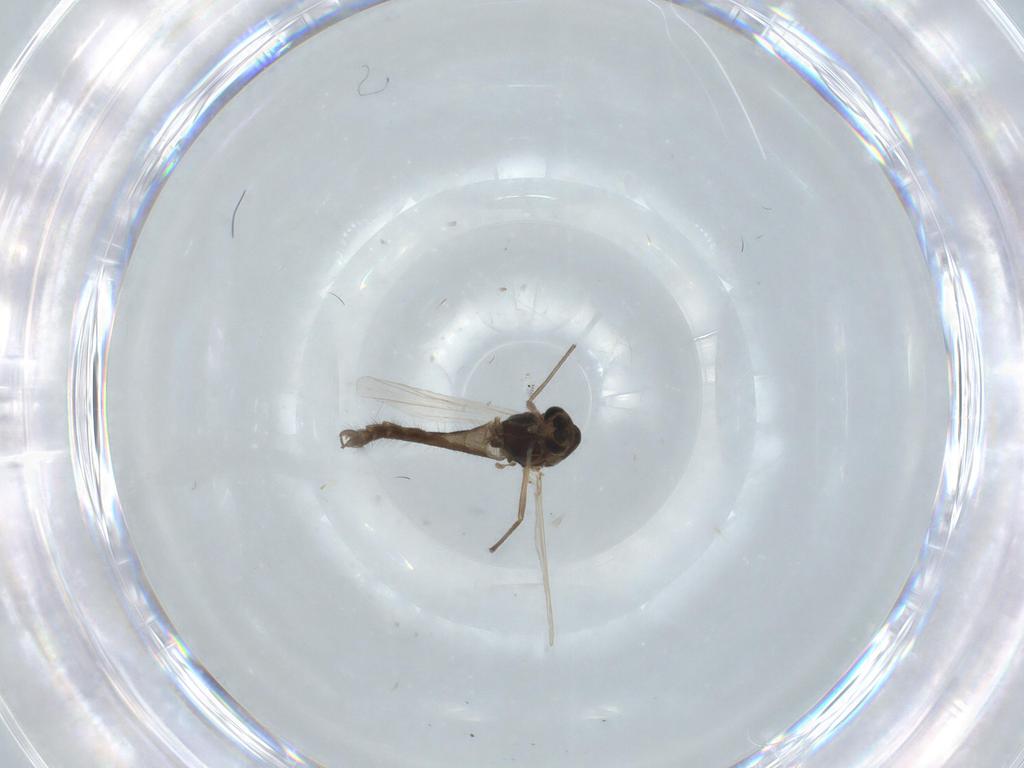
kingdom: Animalia
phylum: Arthropoda
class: Insecta
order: Diptera
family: Chironomidae
